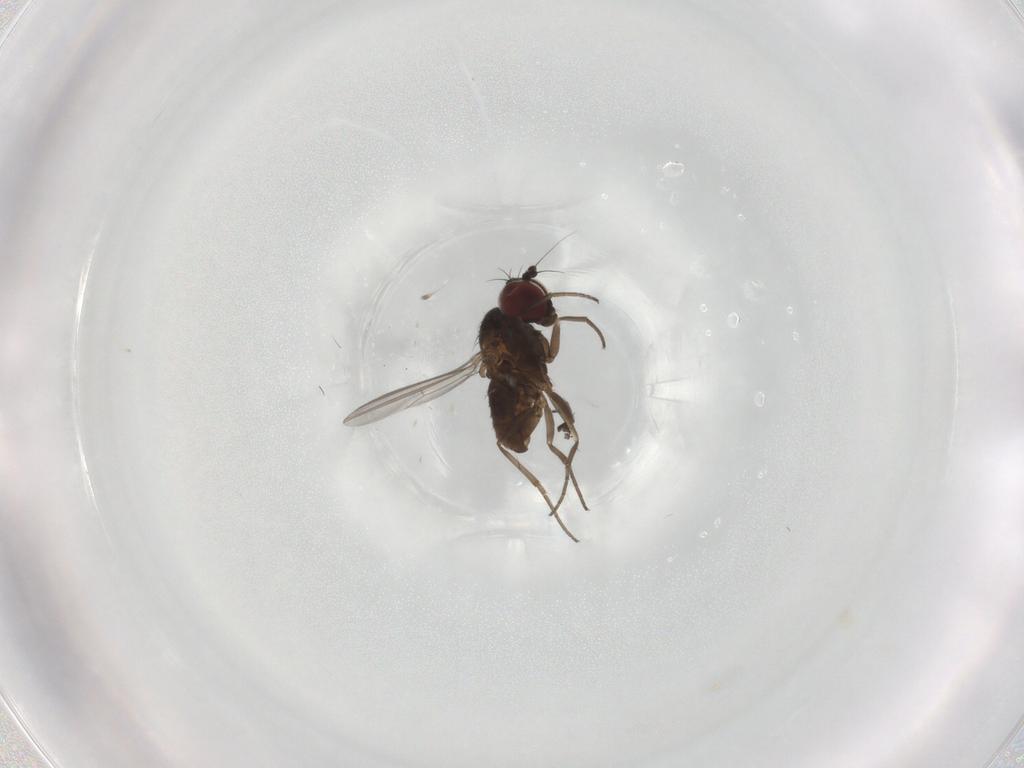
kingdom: Animalia
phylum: Arthropoda
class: Insecta
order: Diptera
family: Dolichopodidae
